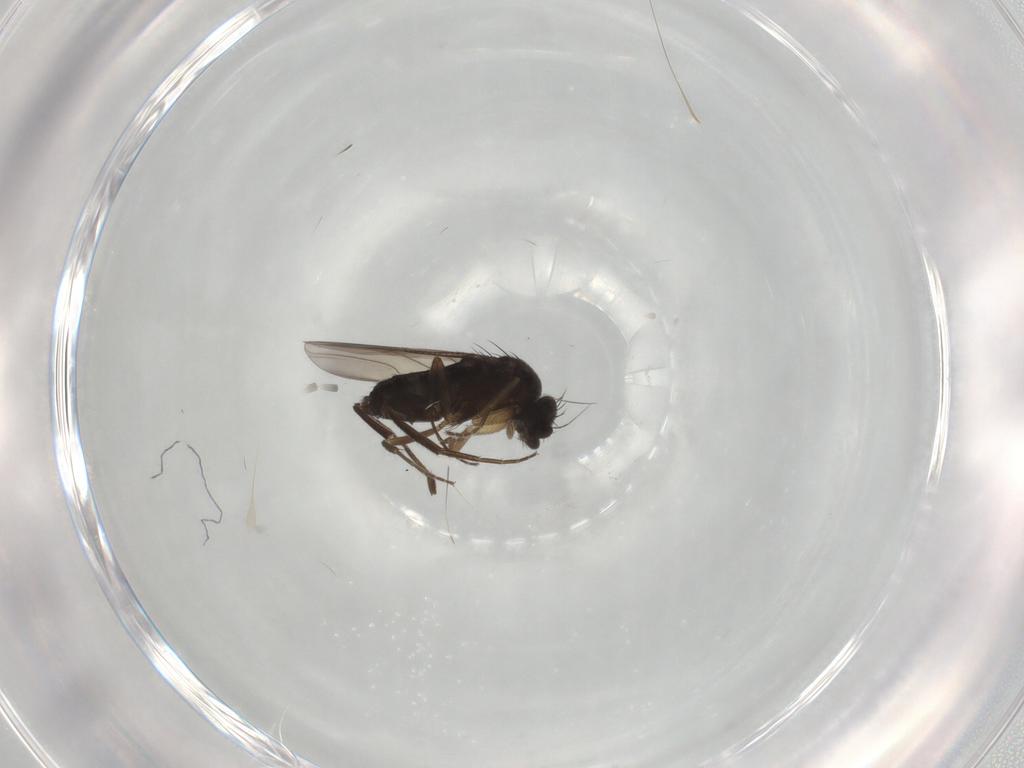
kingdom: Animalia
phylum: Arthropoda
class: Insecta
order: Diptera
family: Phoridae
